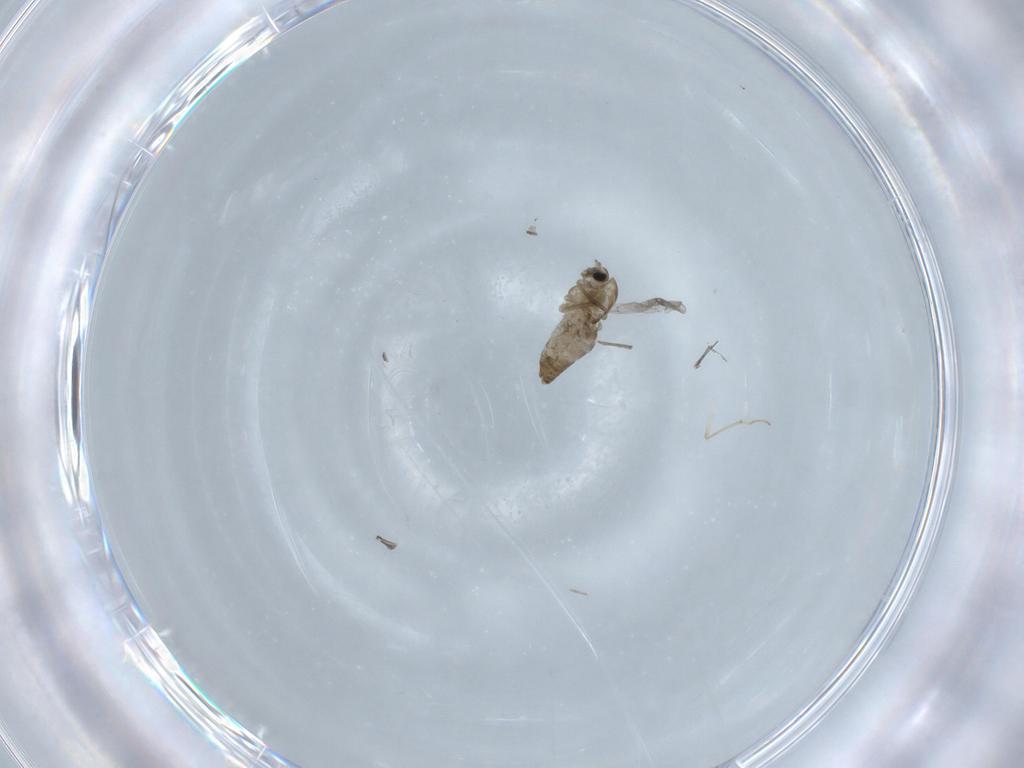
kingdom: Animalia
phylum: Arthropoda
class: Insecta
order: Diptera
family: Chironomidae
